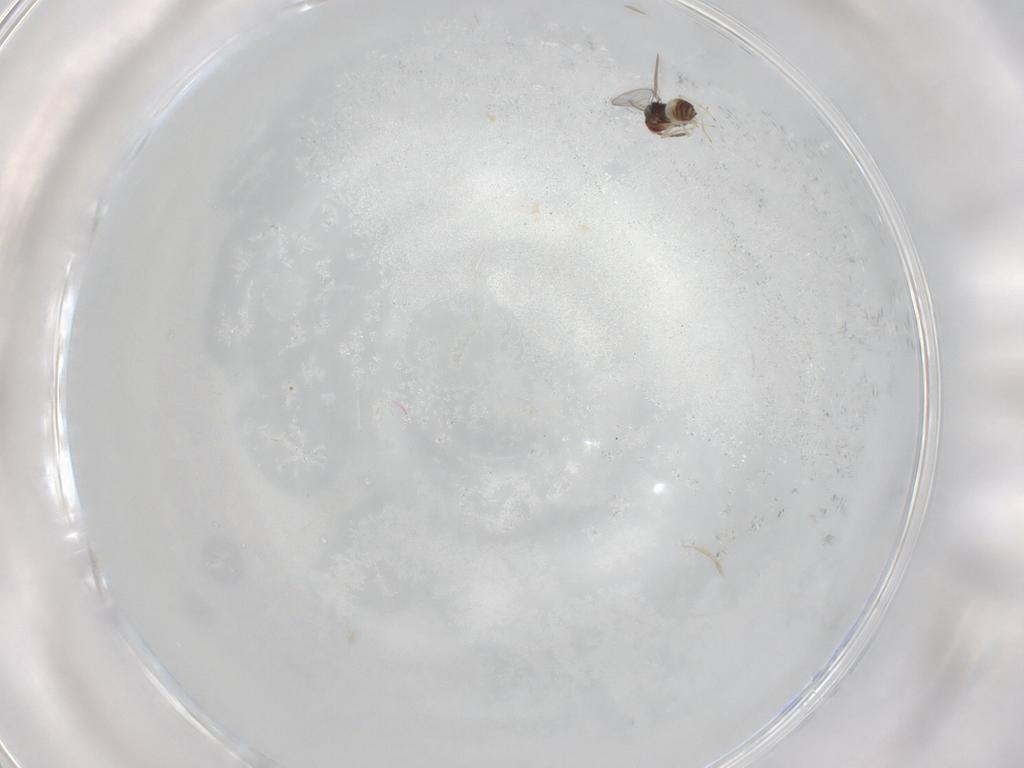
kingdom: Animalia
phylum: Arthropoda
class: Insecta
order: Hymenoptera
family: Eulophidae
